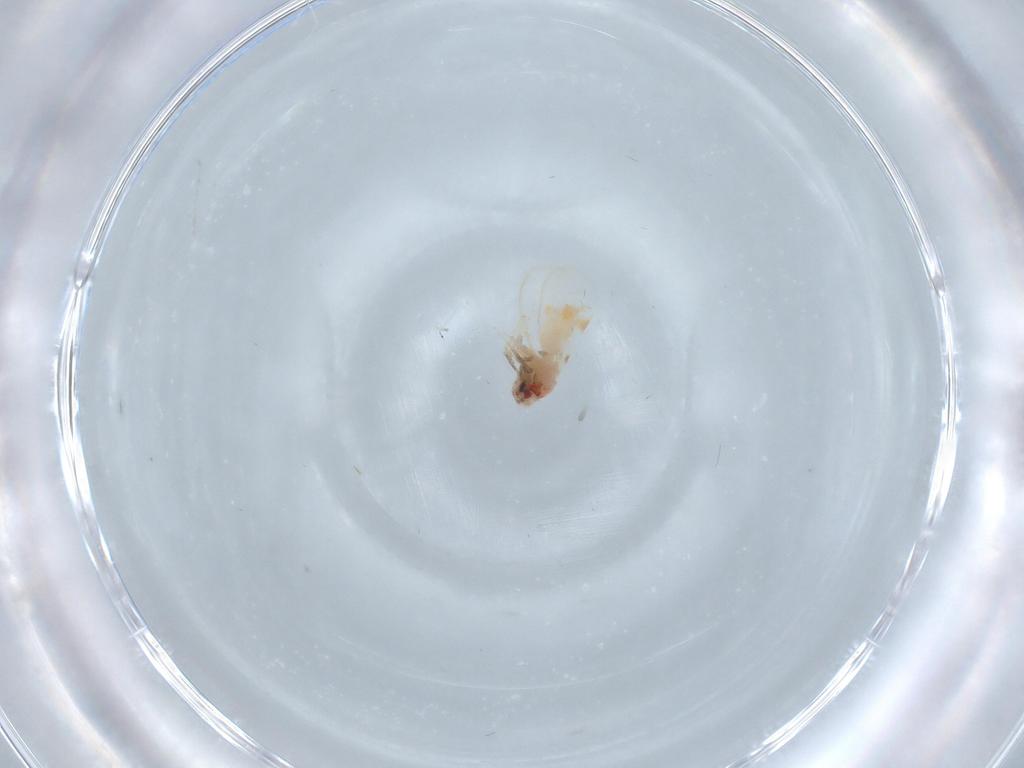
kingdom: Animalia
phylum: Arthropoda
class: Insecta
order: Hemiptera
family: Aleyrodidae
